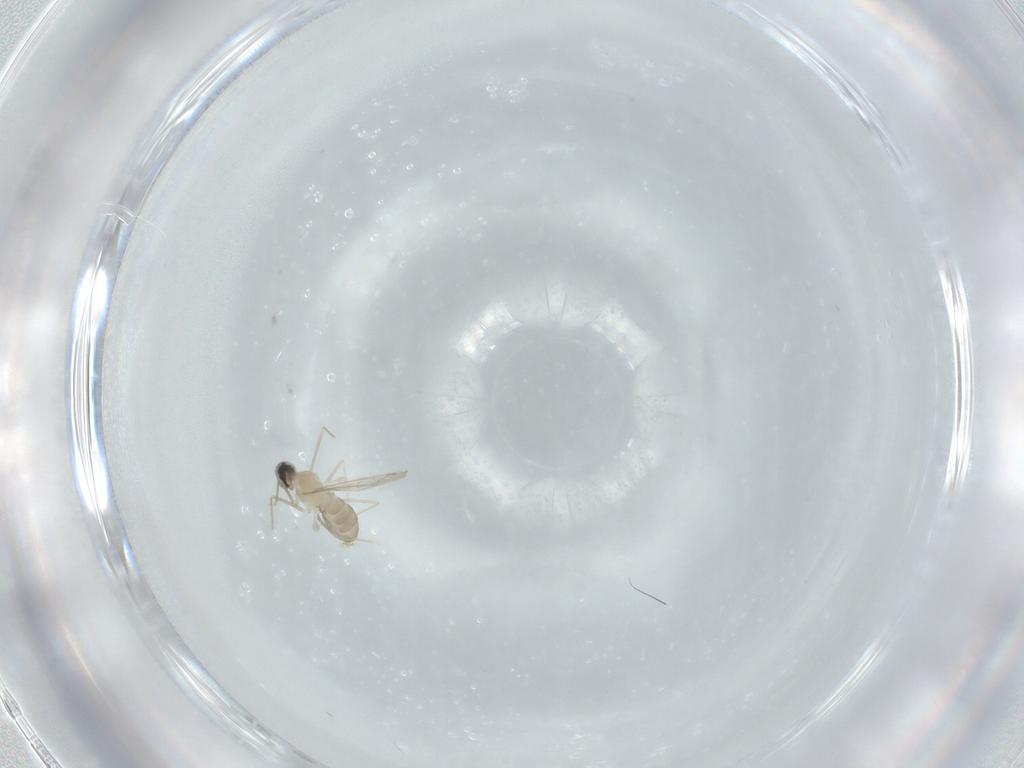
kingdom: Animalia
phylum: Arthropoda
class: Insecta
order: Diptera
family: Cecidomyiidae
